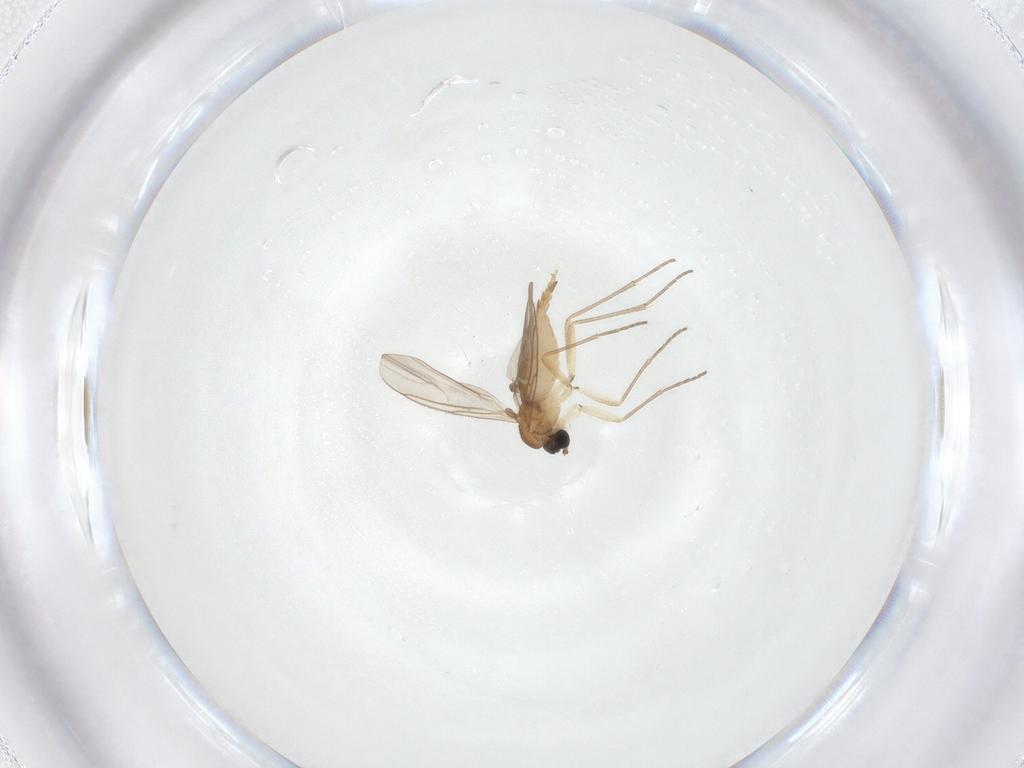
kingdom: Animalia
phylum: Arthropoda
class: Insecta
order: Diptera
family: Sciaridae
